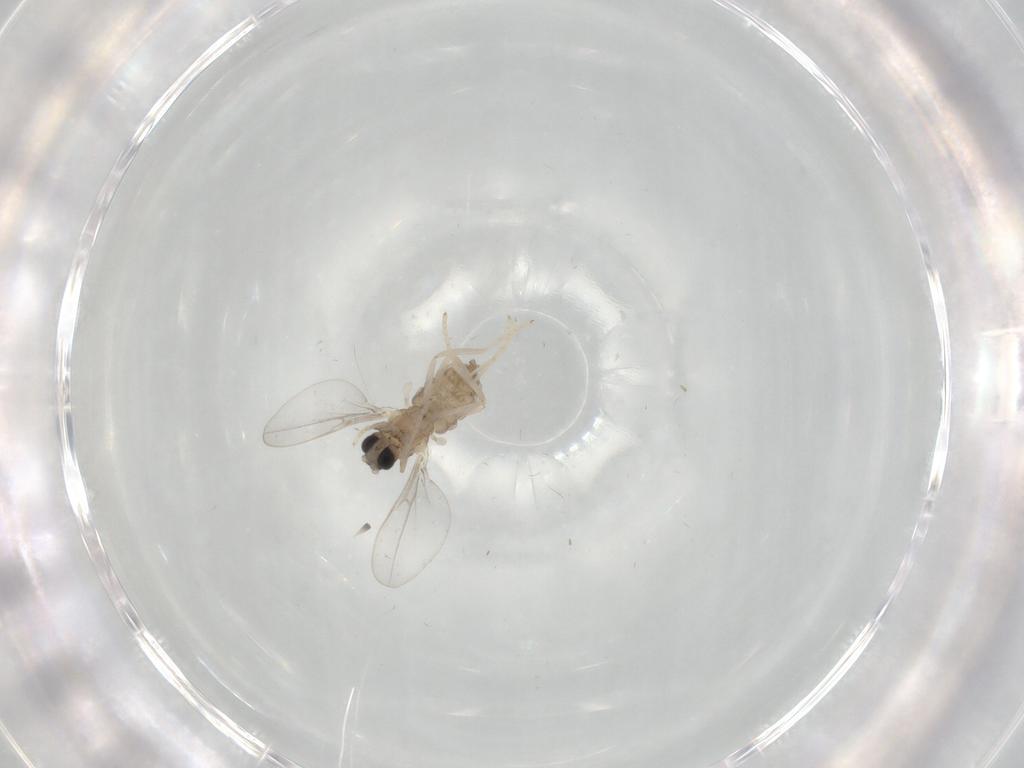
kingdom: Animalia
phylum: Arthropoda
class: Insecta
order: Diptera
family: Cecidomyiidae
